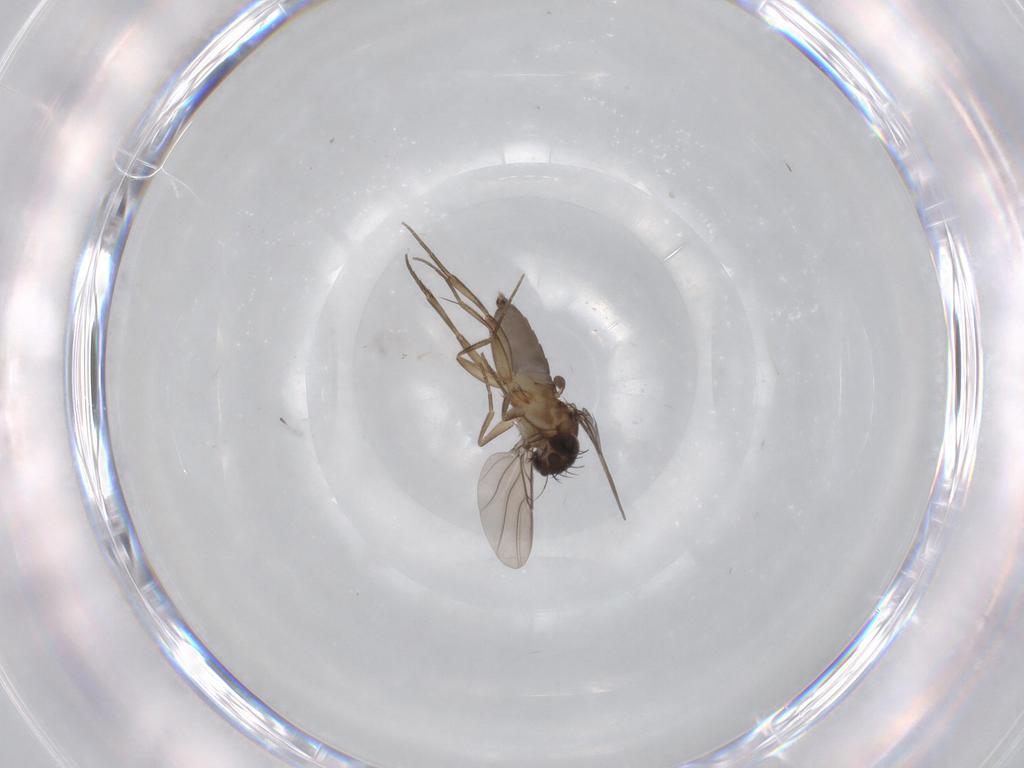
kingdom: Animalia
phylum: Arthropoda
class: Insecta
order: Diptera
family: Phoridae
